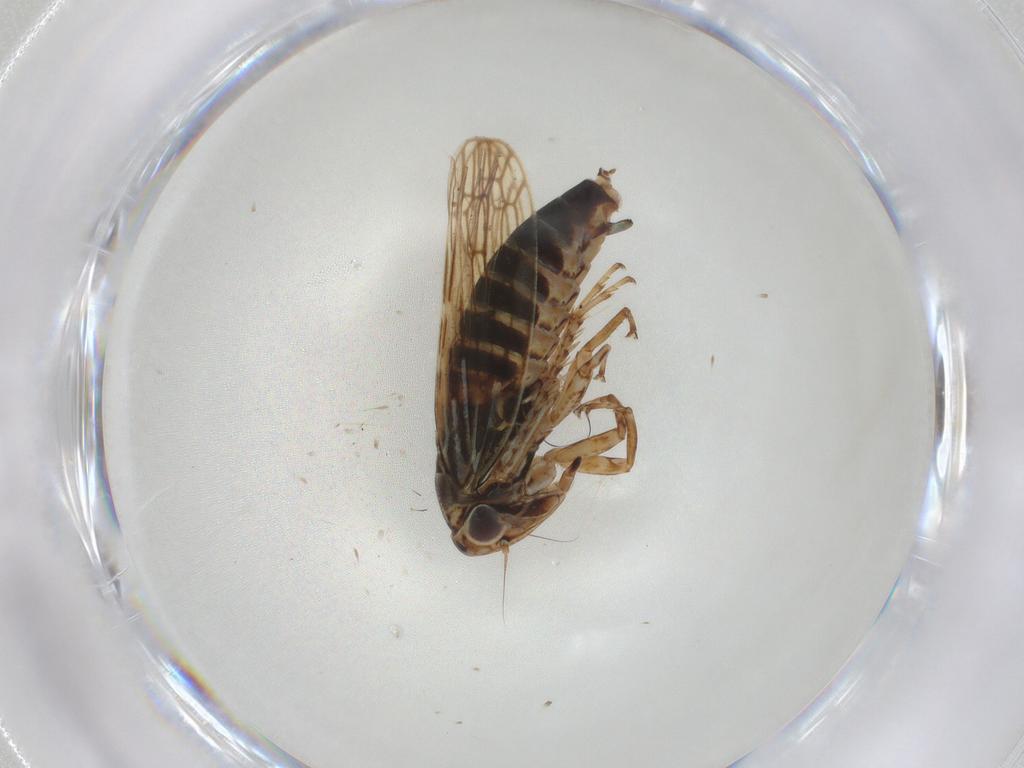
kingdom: Animalia
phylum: Arthropoda
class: Insecta
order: Hemiptera
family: Cicadellidae
